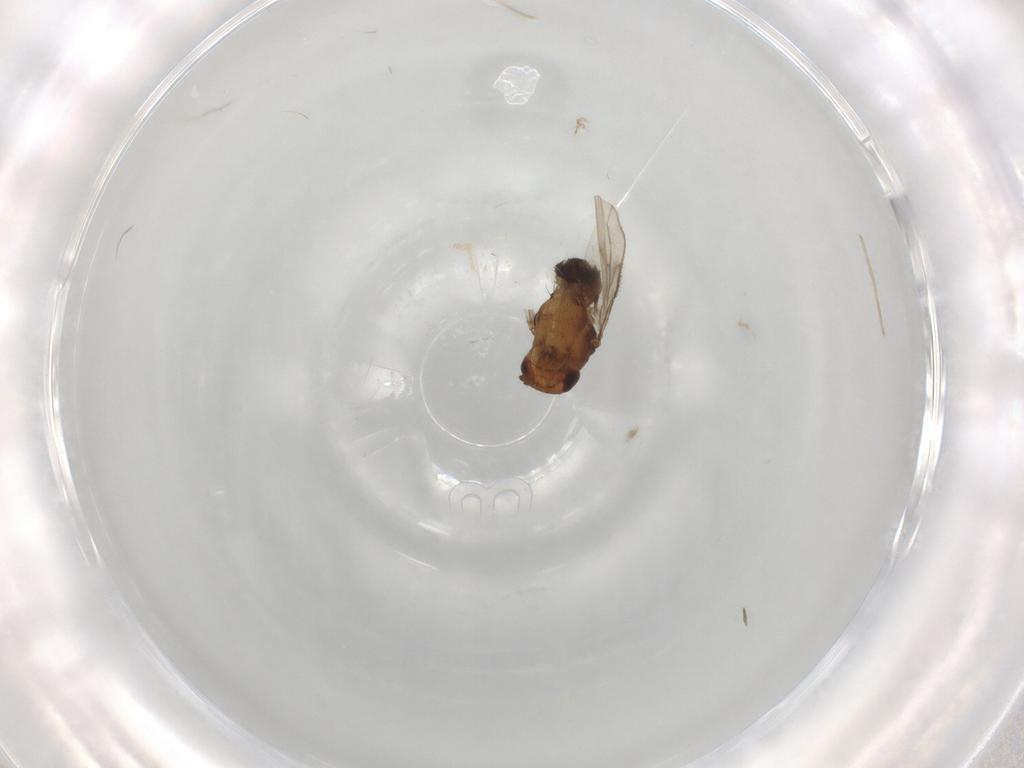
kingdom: Animalia
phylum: Arthropoda
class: Insecta
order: Diptera
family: Sphaeroceridae
